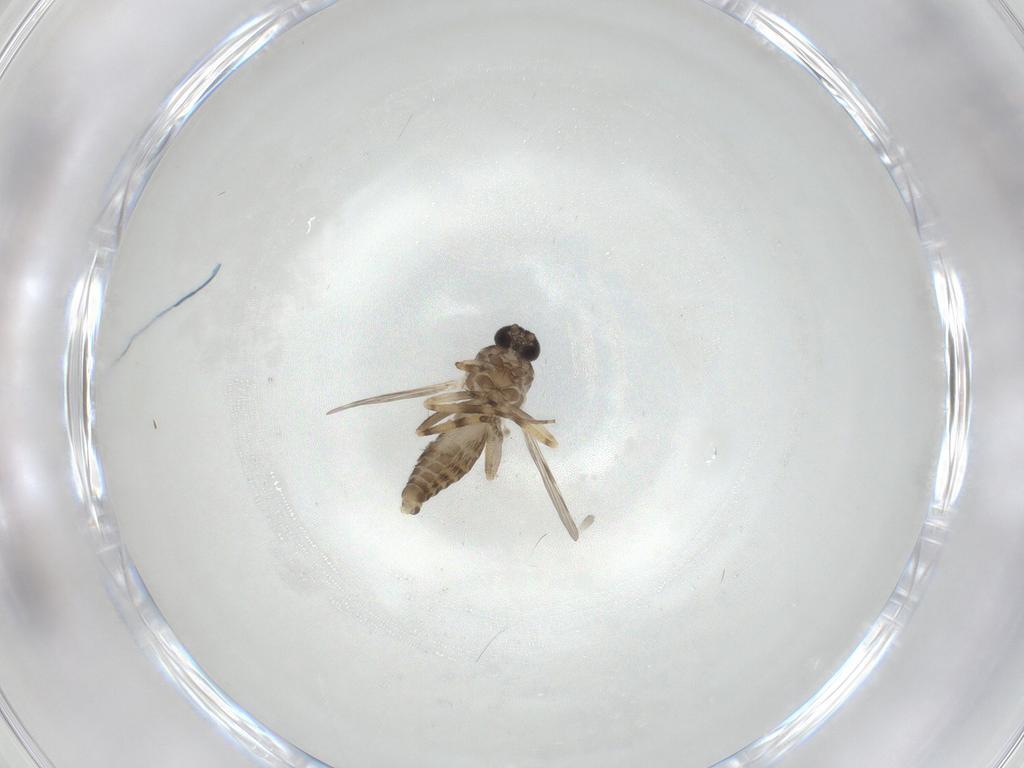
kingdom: Animalia
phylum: Arthropoda
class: Insecta
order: Diptera
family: Ceratopogonidae
